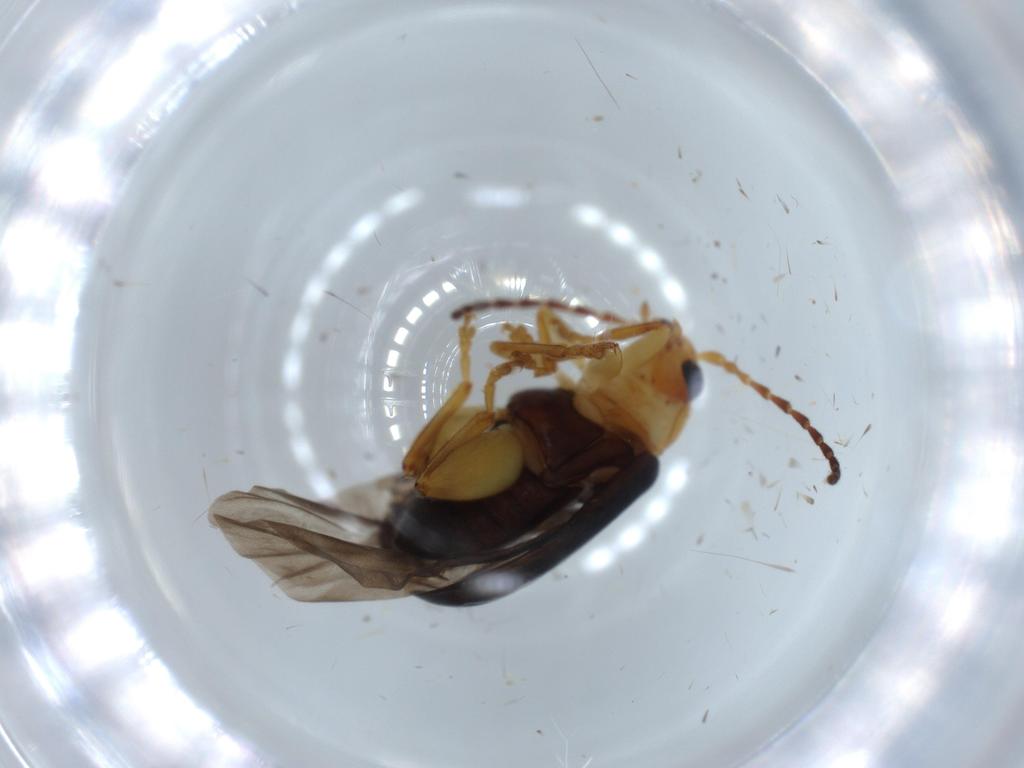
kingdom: Animalia
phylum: Arthropoda
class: Insecta
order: Coleoptera
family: Chrysomelidae
